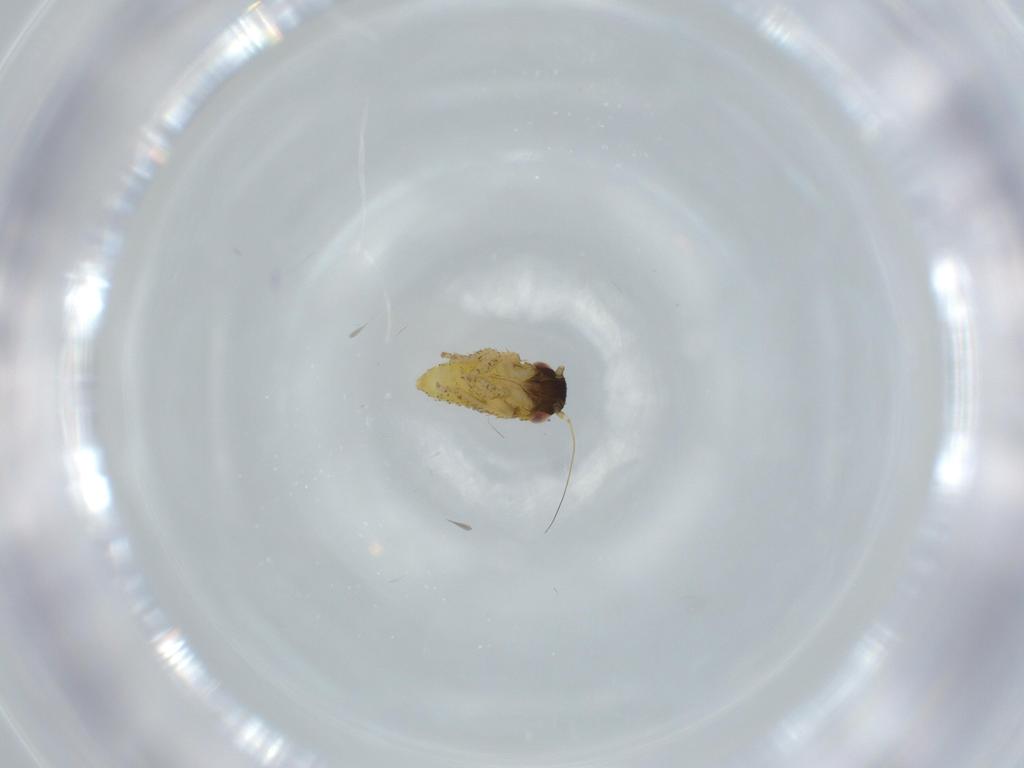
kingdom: Animalia
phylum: Arthropoda
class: Insecta
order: Hemiptera
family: Cicadellidae
